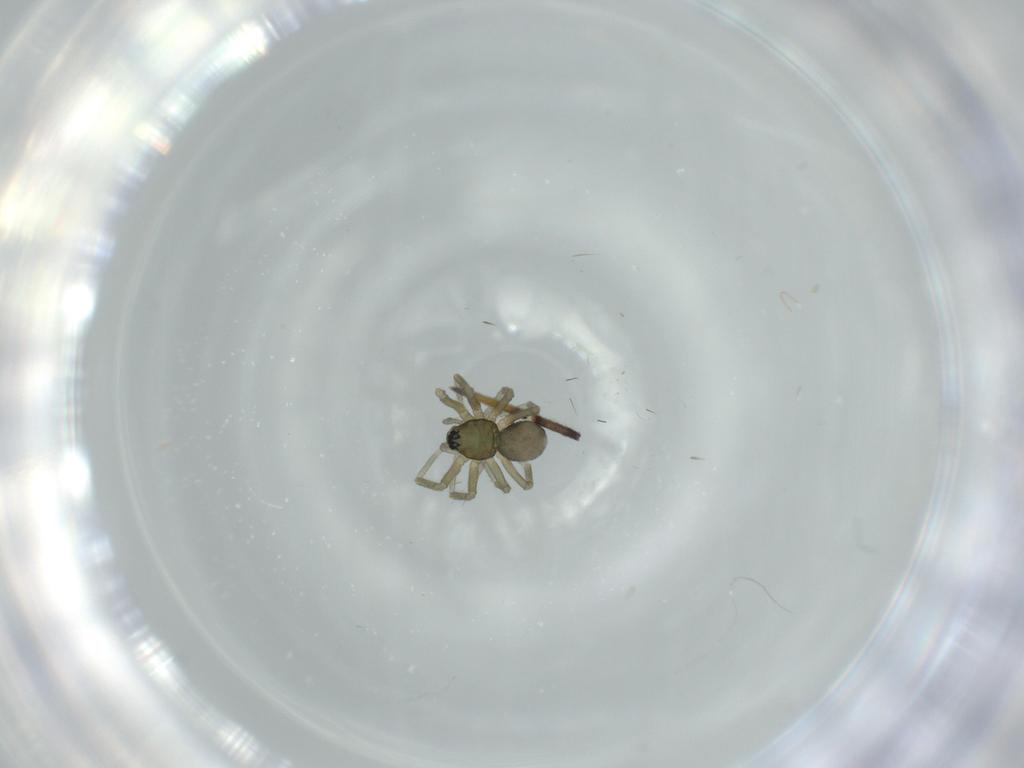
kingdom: Animalia
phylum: Arthropoda
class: Arachnida
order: Araneae
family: Linyphiidae
